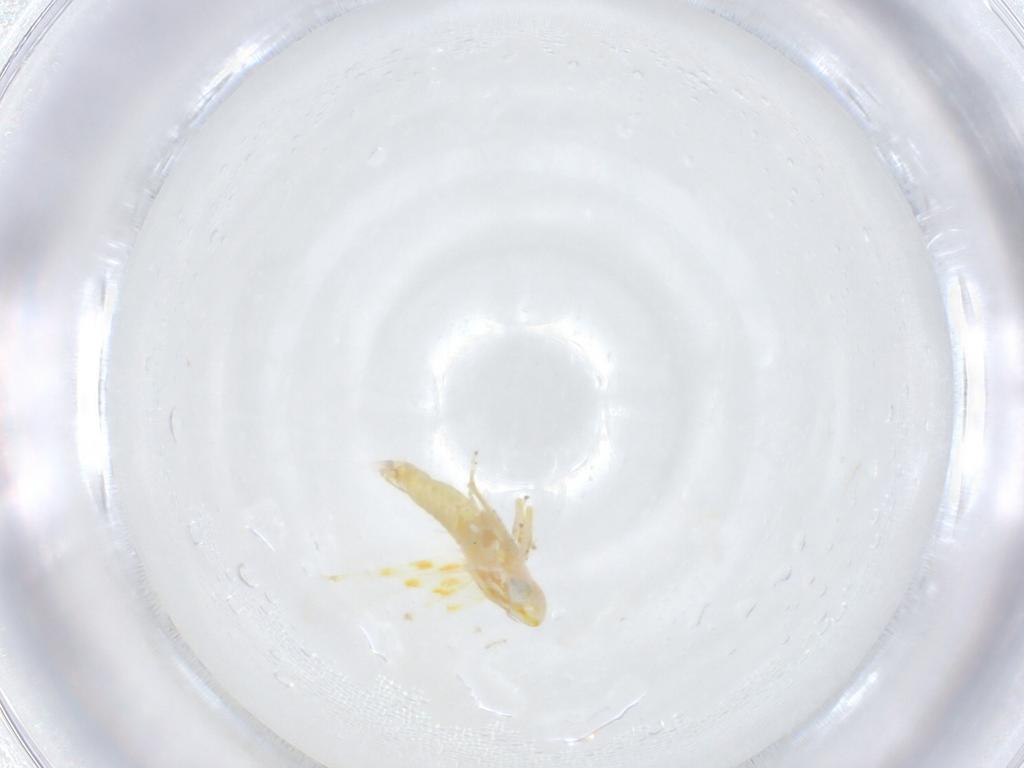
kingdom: Animalia
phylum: Arthropoda
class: Insecta
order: Hemiptera
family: Cicadellidae
